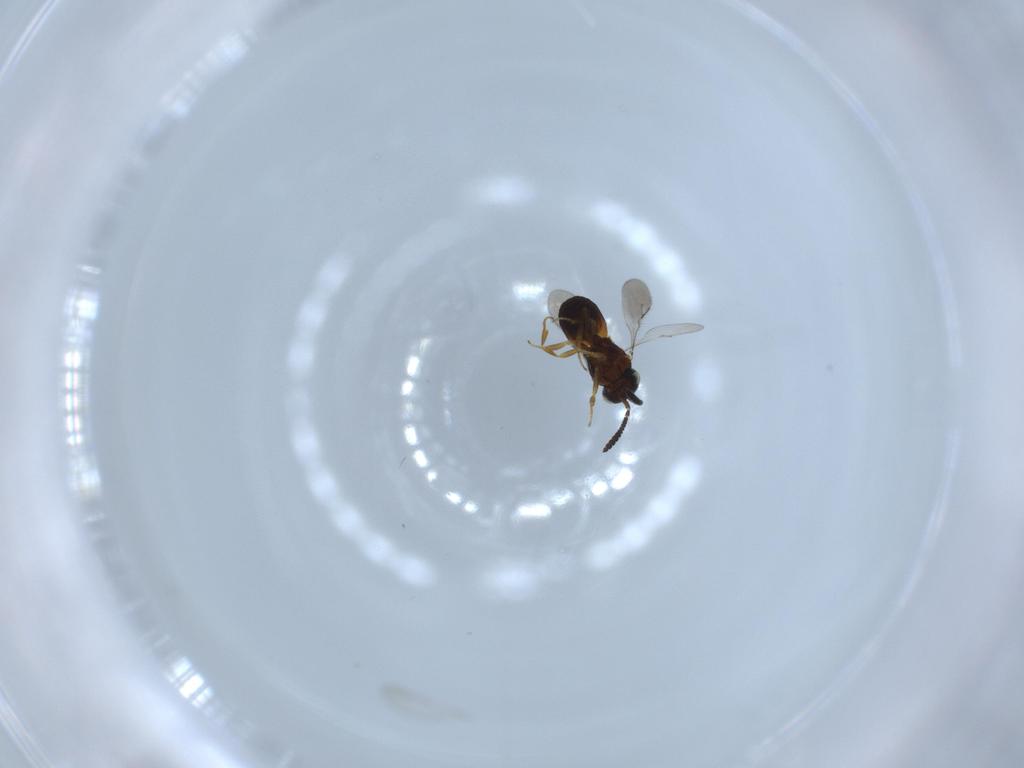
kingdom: Animalia
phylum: Arthropoda
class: Insecta
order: Hymenoptera
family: Scelionidae
